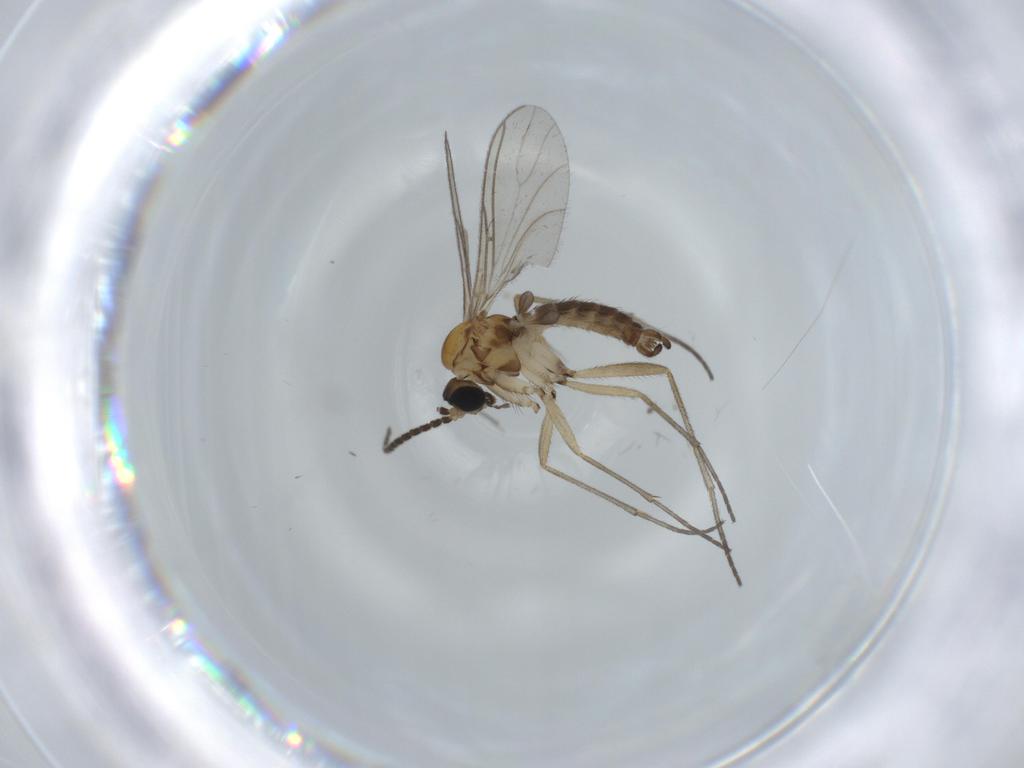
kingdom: Animalia
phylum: Arthropoda
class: Insecta
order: Diptera
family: Sciaridae
